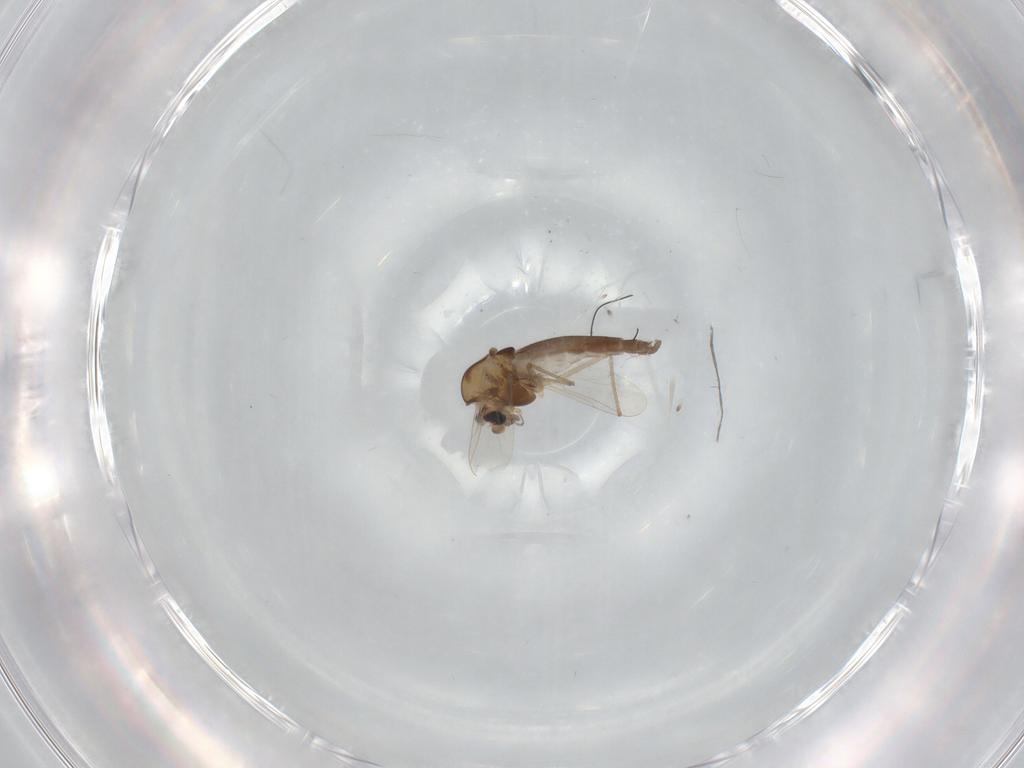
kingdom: Animalia
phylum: Arthropoda
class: Insecta
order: Diptera
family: Chironomidae
